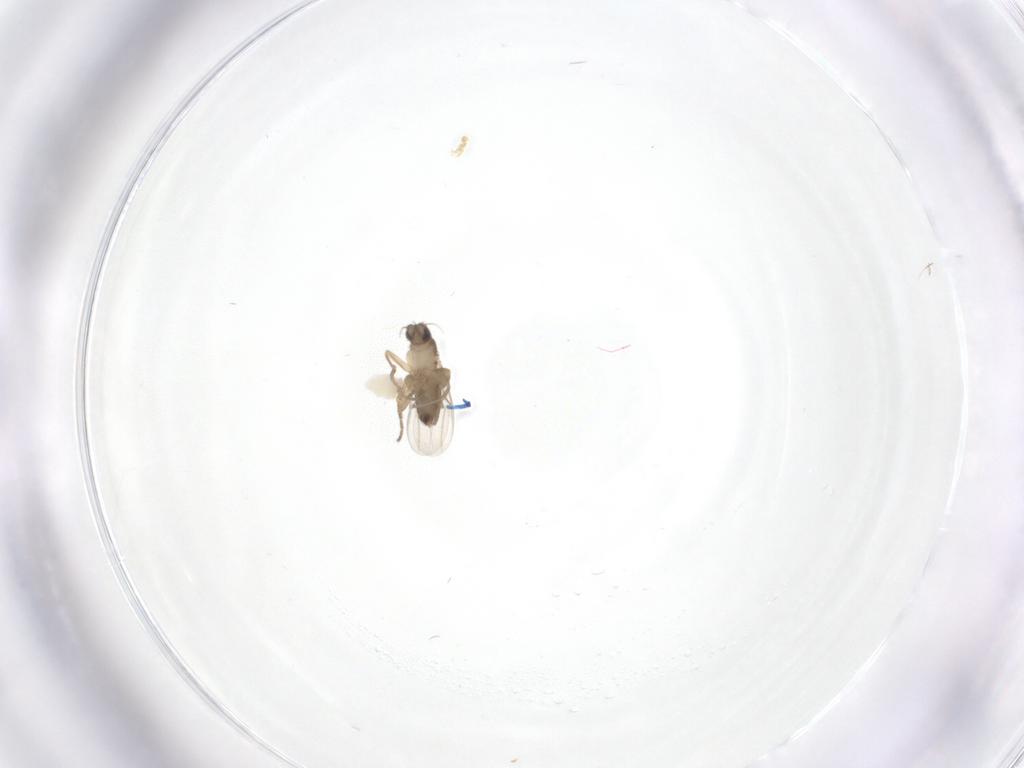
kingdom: Animalia
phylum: Arthropoda
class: Insecta
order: Diptera
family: Phoridae
